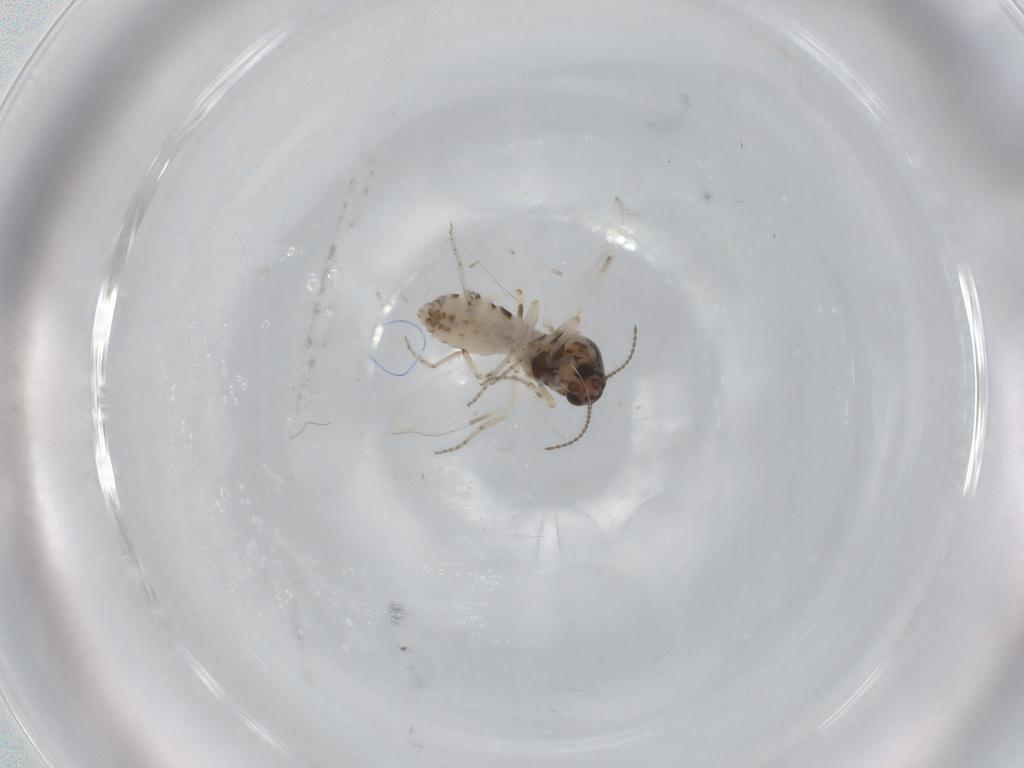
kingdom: Animalia
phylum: Arthropoda
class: Insecta
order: Diptera
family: Ceratopogonidae
